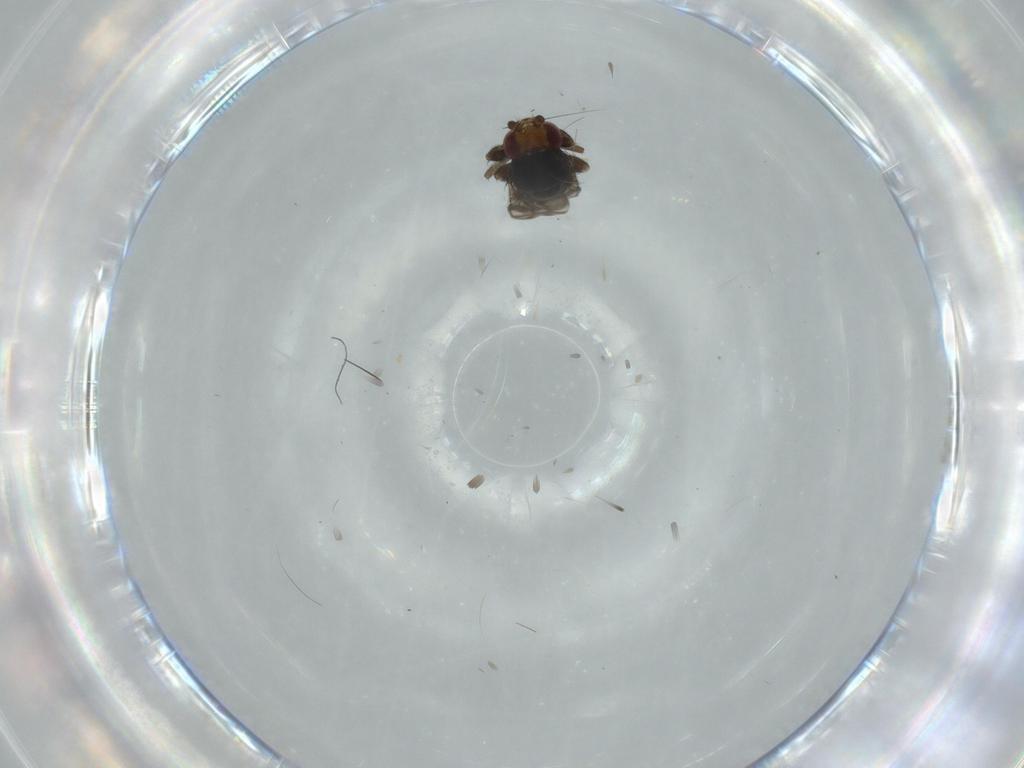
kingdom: Animalia
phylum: Arthropoda
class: Insecta
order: Diptera
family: Sphaeroceridae
